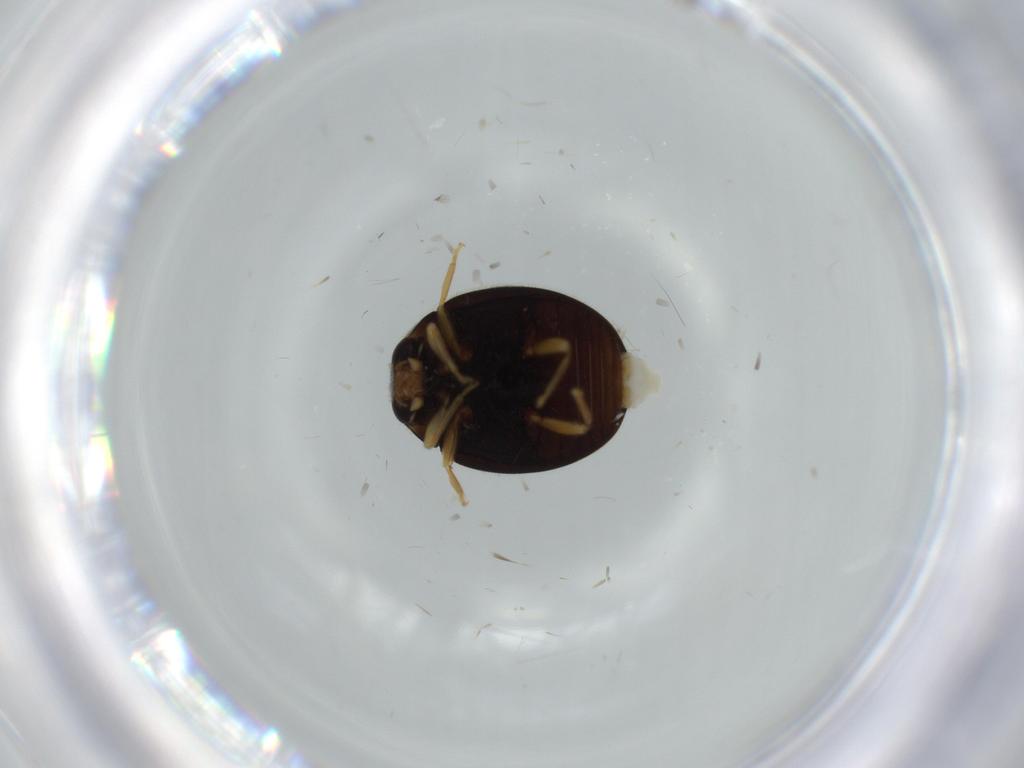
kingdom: Animalia
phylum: Arthropoda
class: Insecta
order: Coleoptera
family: Coccinellidae
